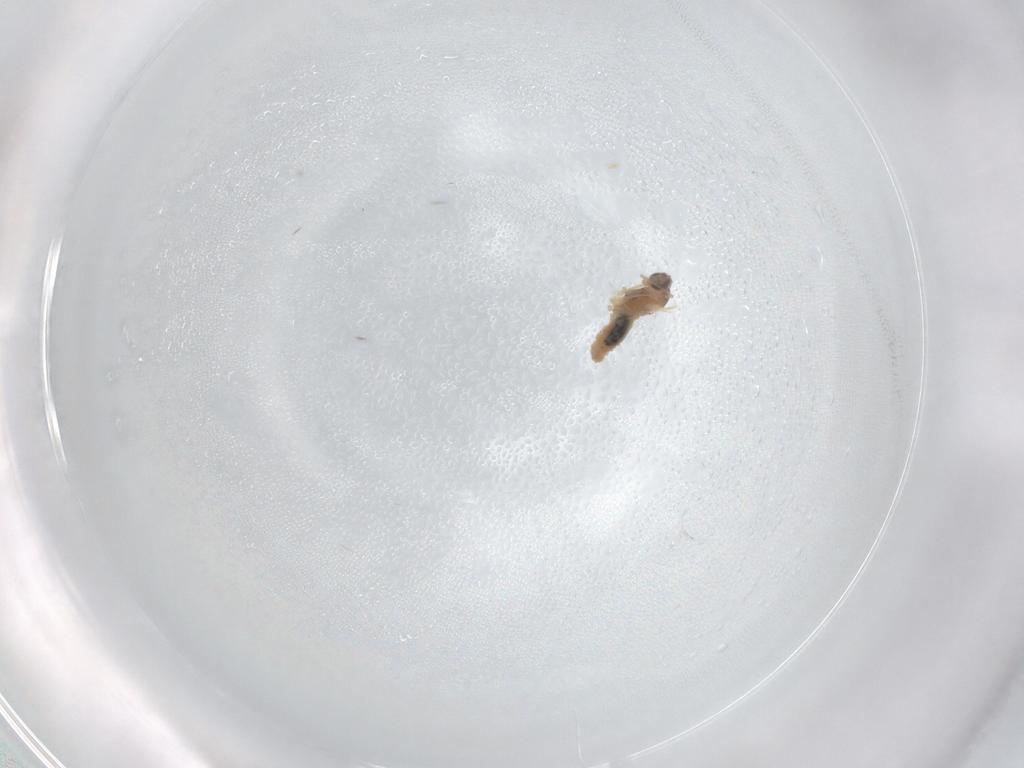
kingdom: Animalia
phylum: Arthropoda
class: Insecta
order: Diptera
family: Cecidomyiidae
